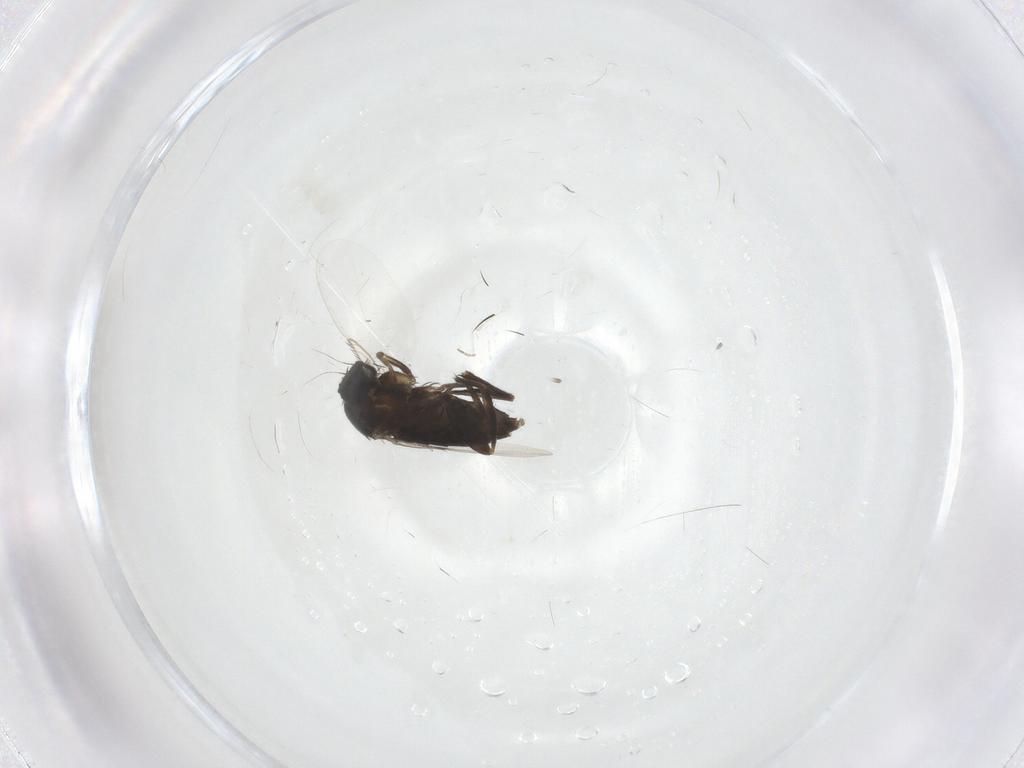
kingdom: Animalia
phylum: Arthropoda
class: Insecta
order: Diptera
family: Phoridae
